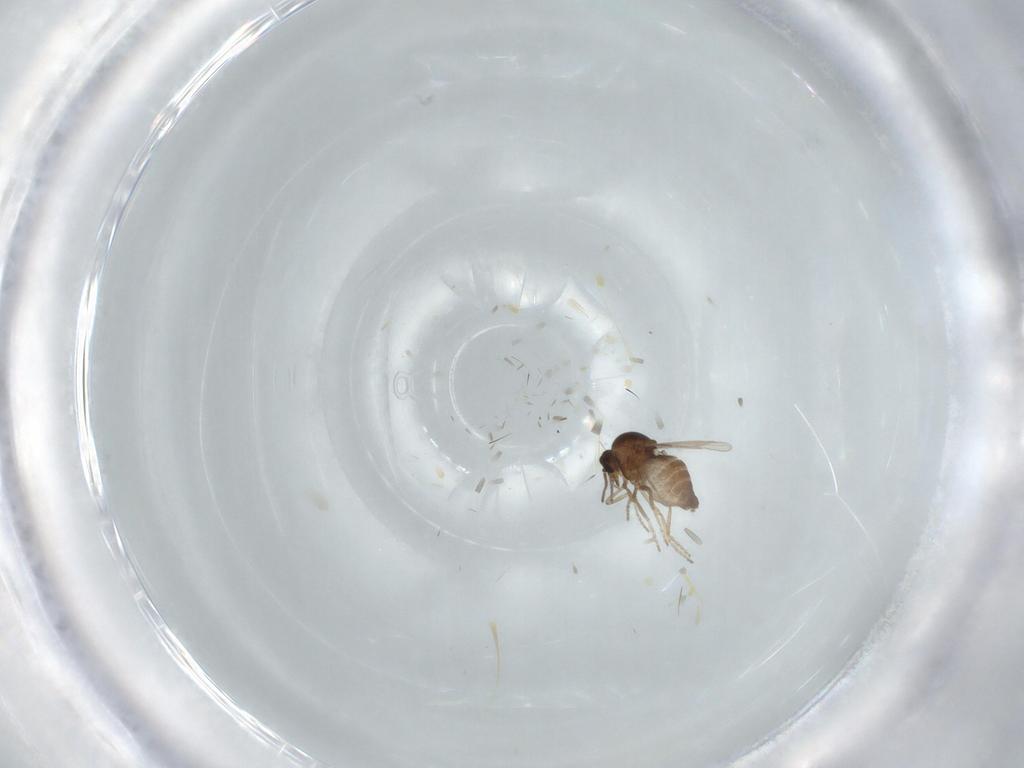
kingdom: Animalia
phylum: Arthropoda
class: Insecta
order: Diptera
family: Ceratopogonidae
